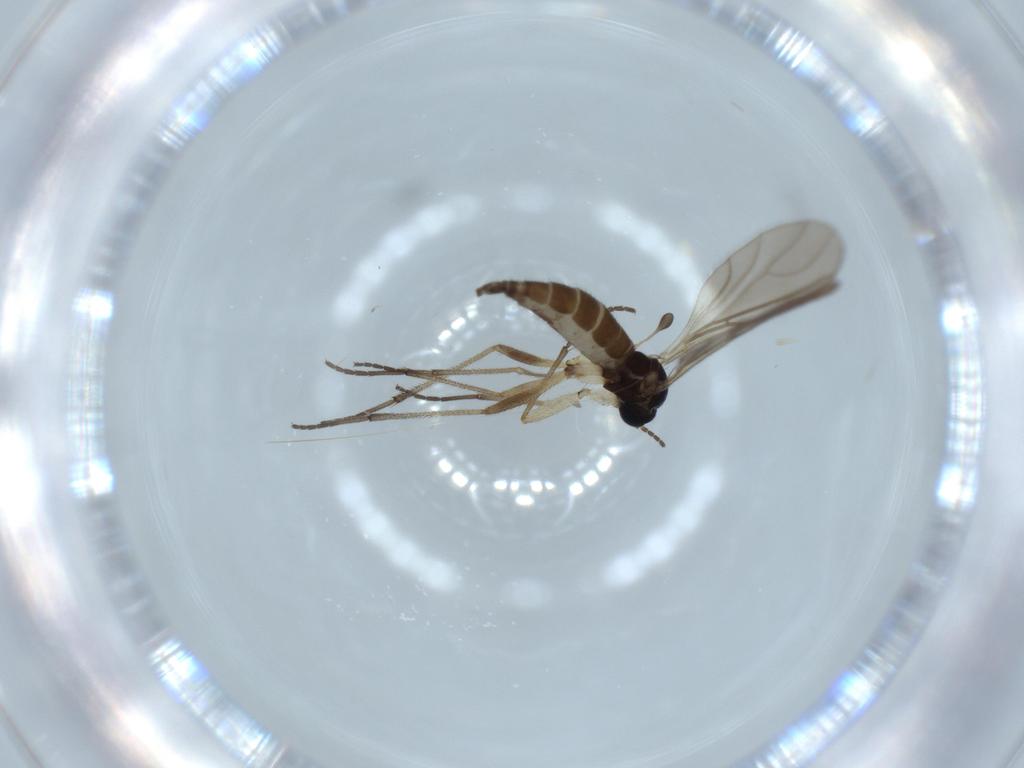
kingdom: Animalia
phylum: Arthropoda
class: Insecta
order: Diptera
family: Sciaridae
